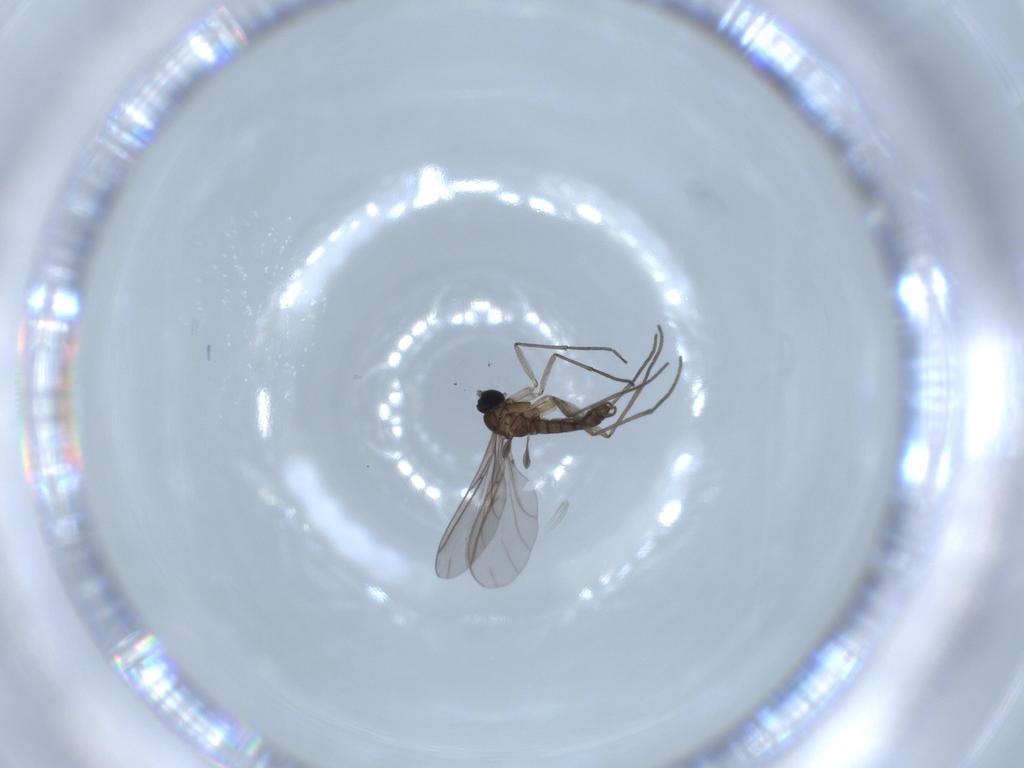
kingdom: Animalia
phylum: Arthropoda
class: Insecta
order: Diptera
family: Sciaridae
